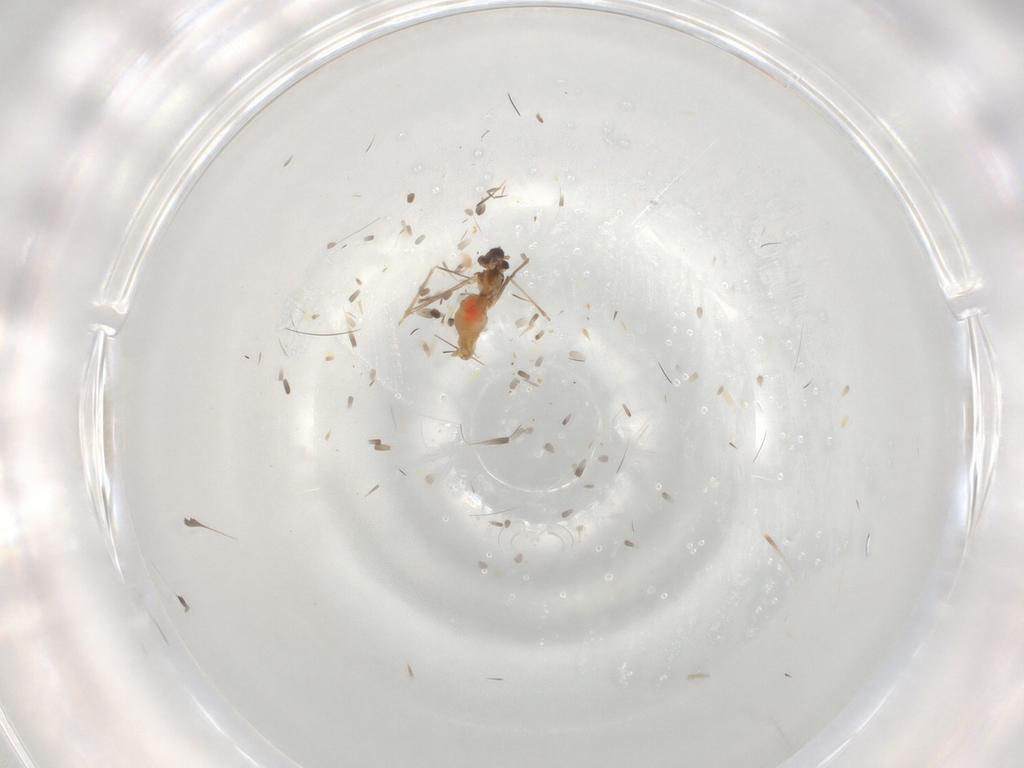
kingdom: Animalia
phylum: Arthropoda
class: Insecta
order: Diptera
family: Cecidomyiidae
